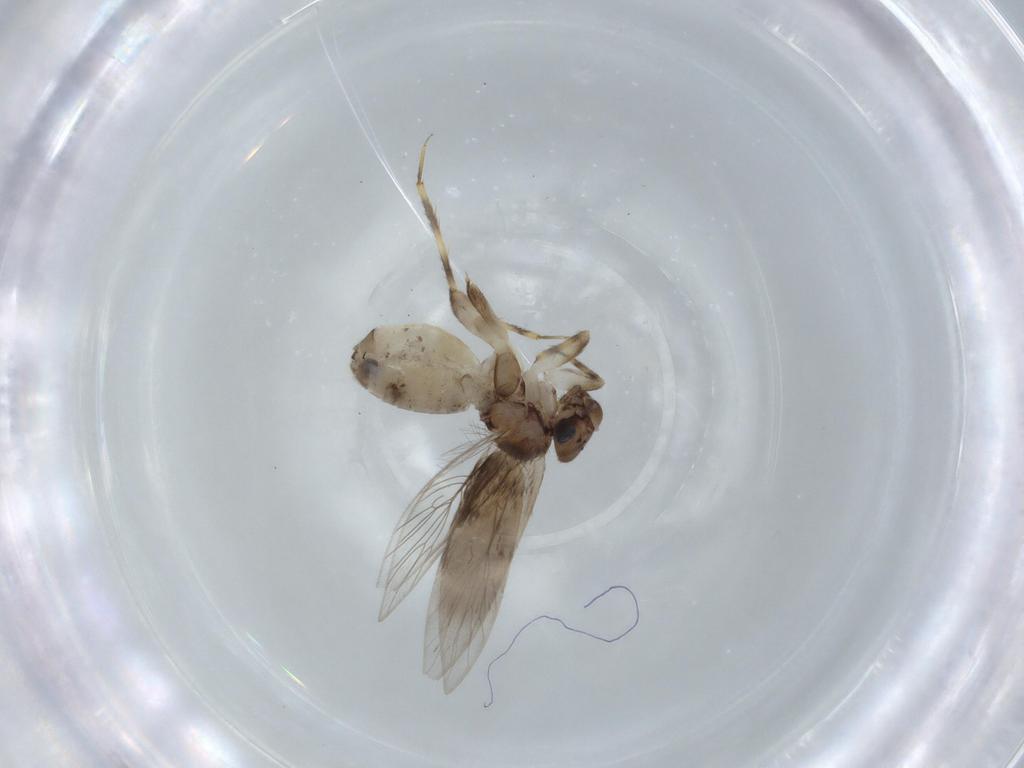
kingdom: Animalia
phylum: Arthropoda
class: Insecta
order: Psocodea
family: Lepidopsocidae
